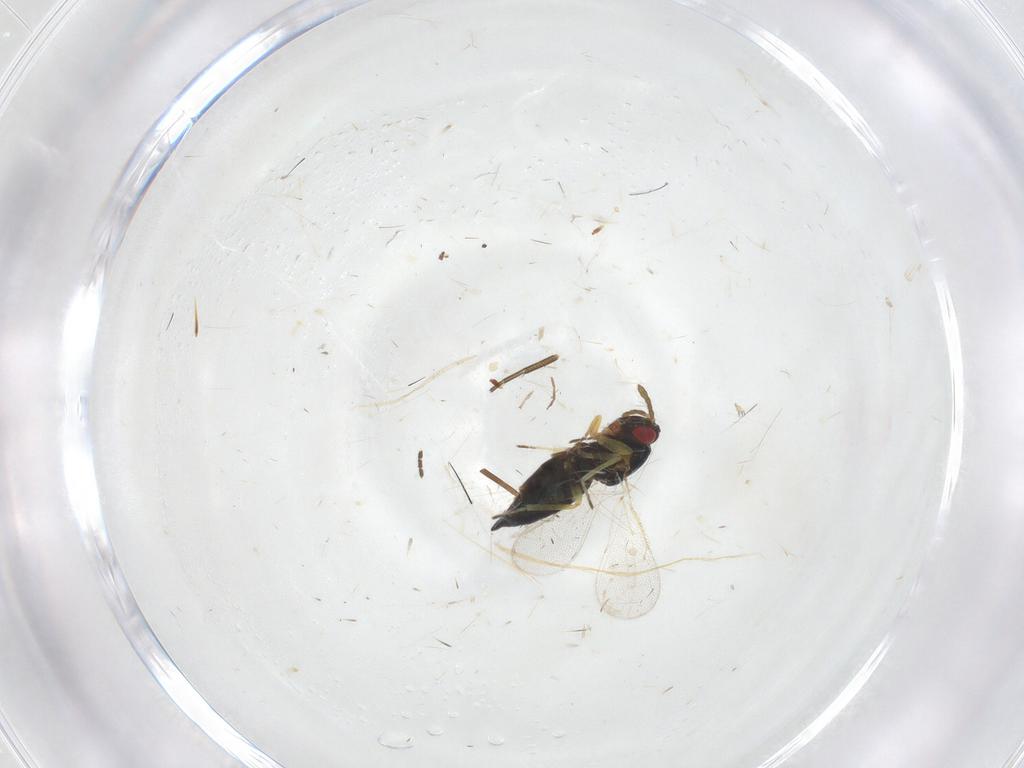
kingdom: Animalia
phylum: Arthropoda
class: Insecta
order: Hymenoptera
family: Eulophidae
